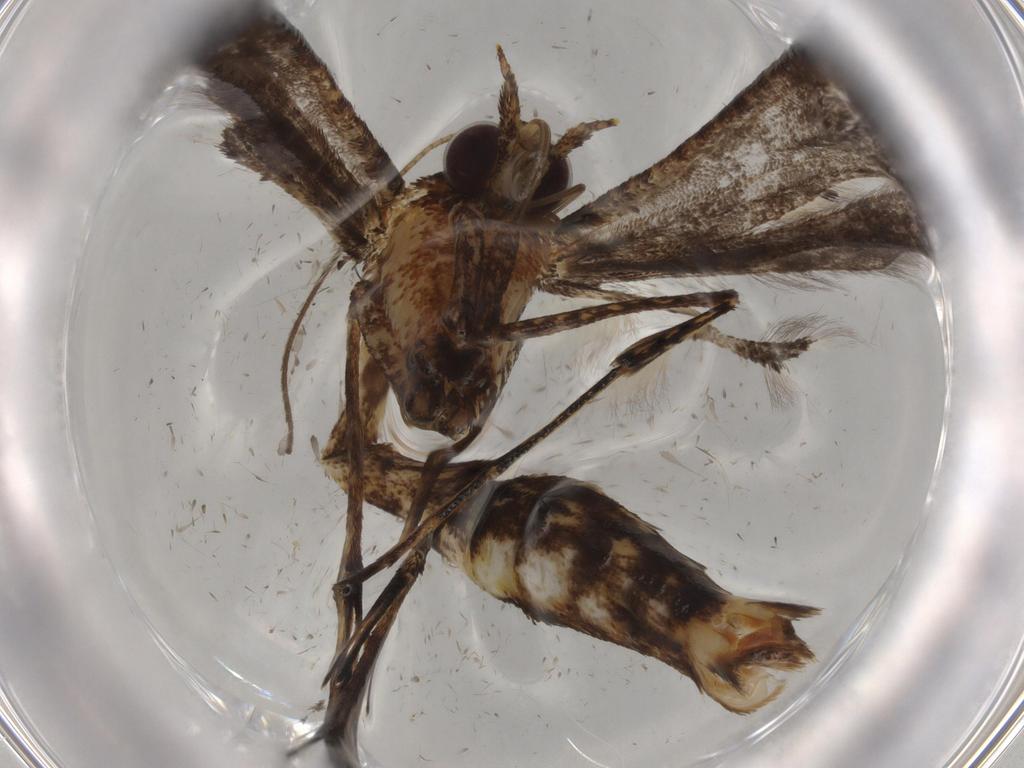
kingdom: Animalia
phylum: Arthropoda
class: Insecta
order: Lepidoptera
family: Pterophoridae
